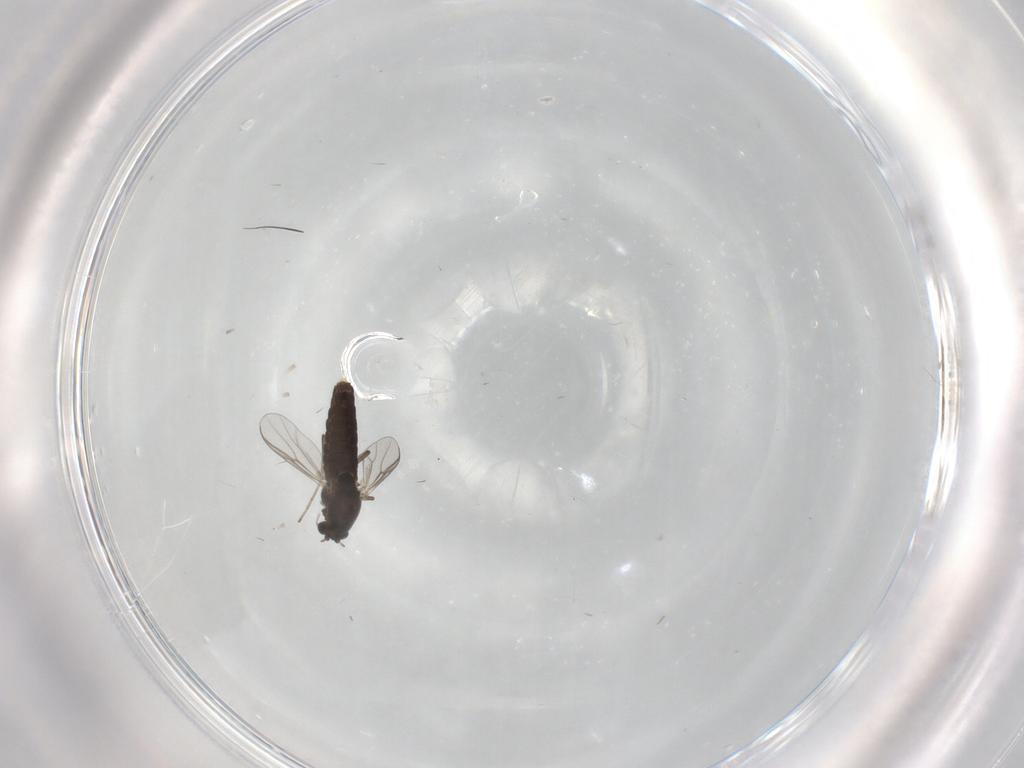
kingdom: Animalia
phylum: Arthropoda
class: Insecta
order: Diptera
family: Chironomidae
